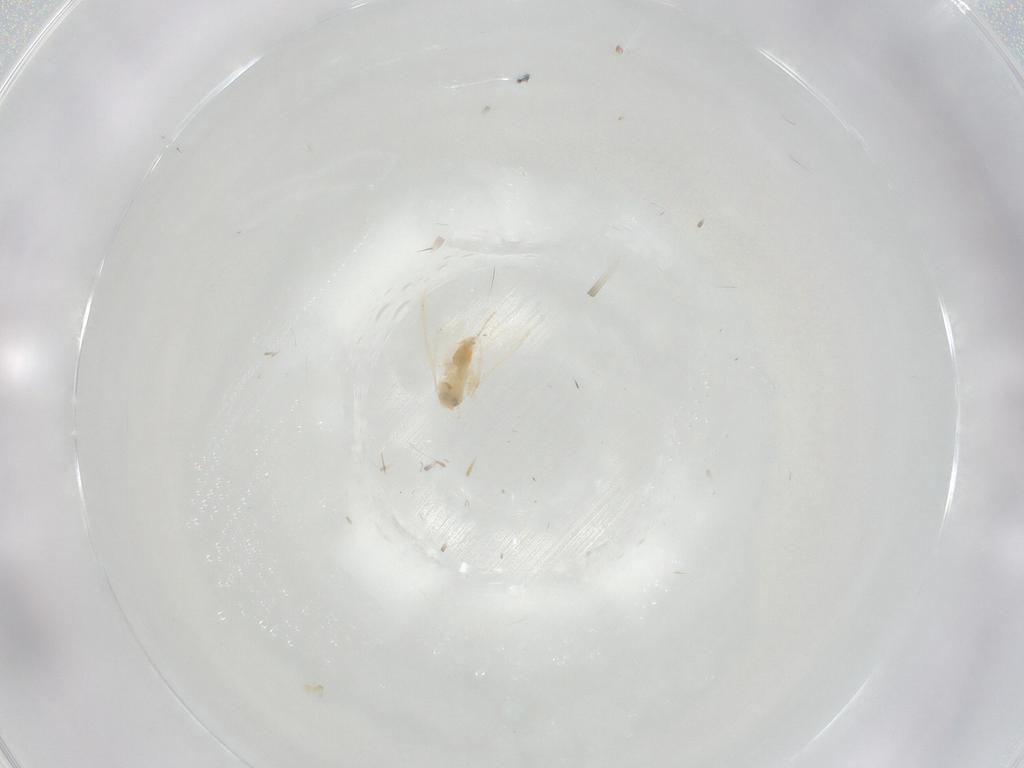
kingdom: Animalia
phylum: Arthropoda
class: Insecta
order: Hemiptera
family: Aleyrodidae
